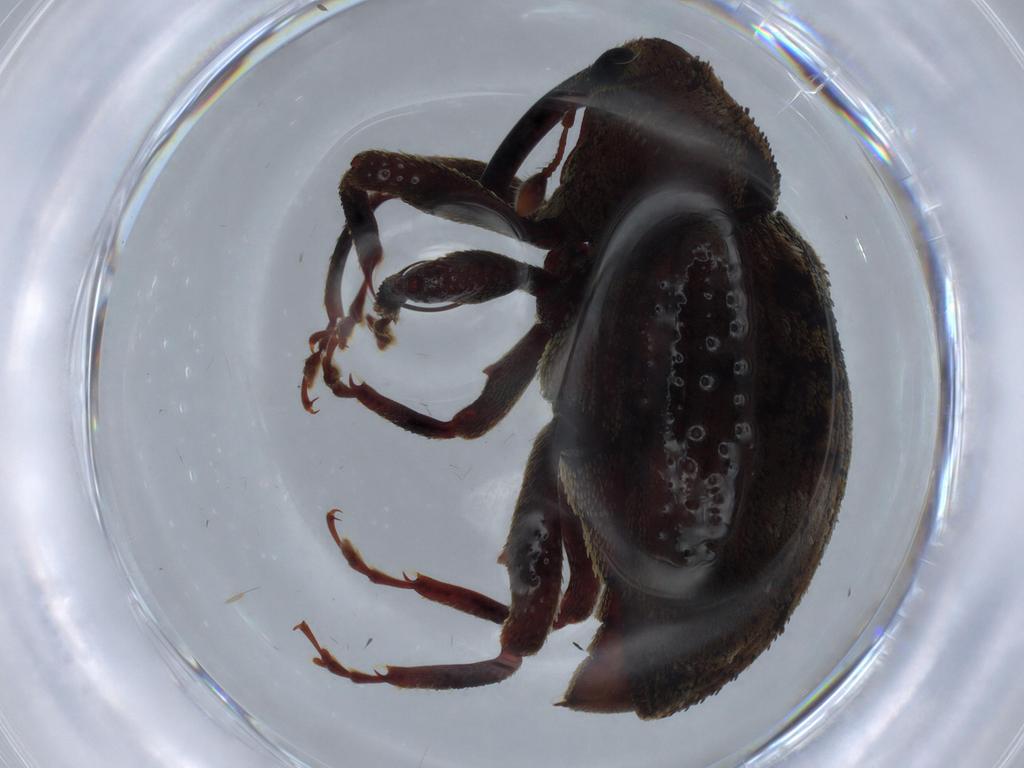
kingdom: Animalia
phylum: Arthropoda
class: Insecta
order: Coleoptera
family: Curculionidae
